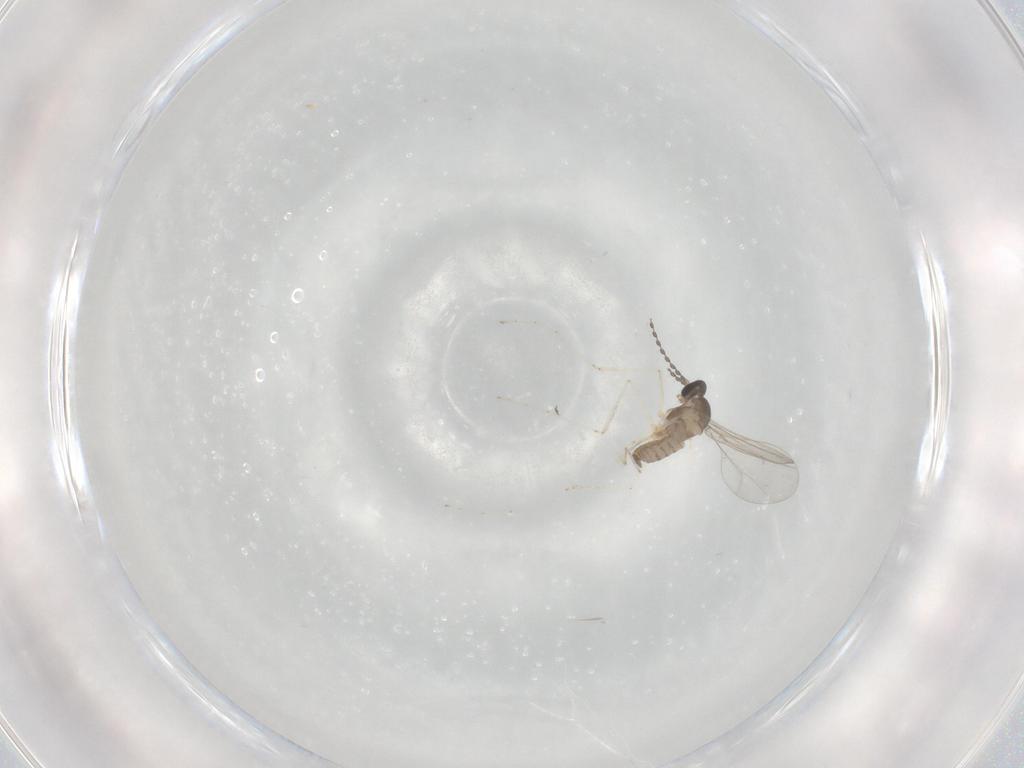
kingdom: Animalia
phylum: Arthropoda
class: Insecta
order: Diptera
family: Cecidomyiidae
